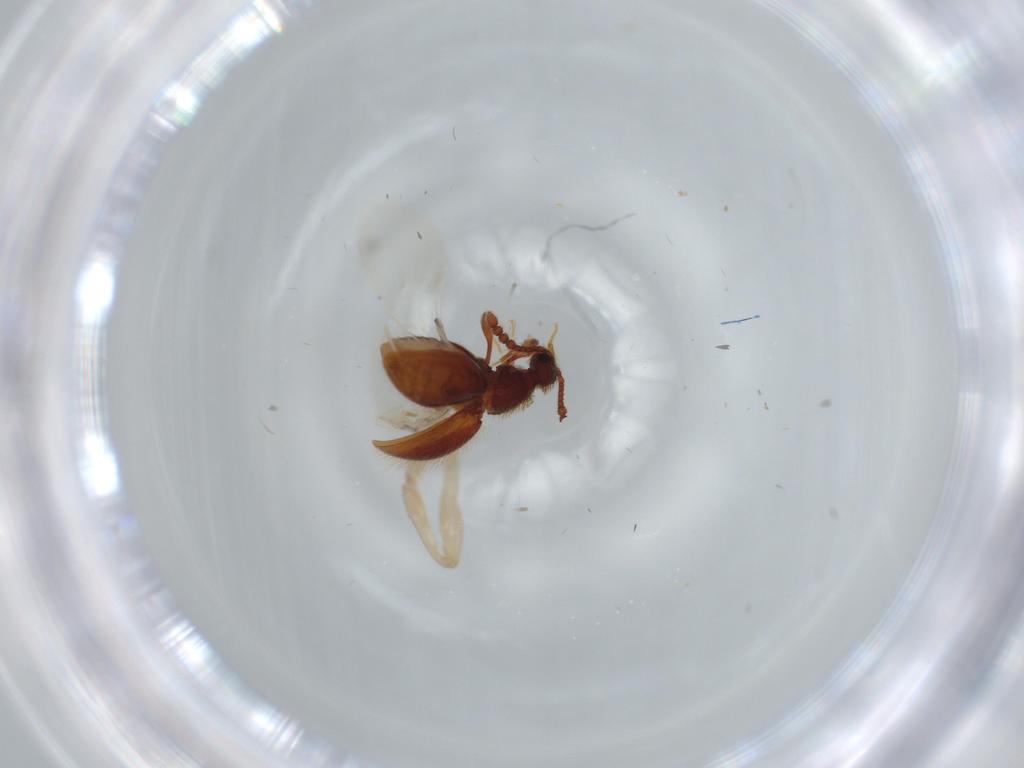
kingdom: Animalia
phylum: Arthropoda
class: Insecta
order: Coleoptera
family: Staphylinidae
